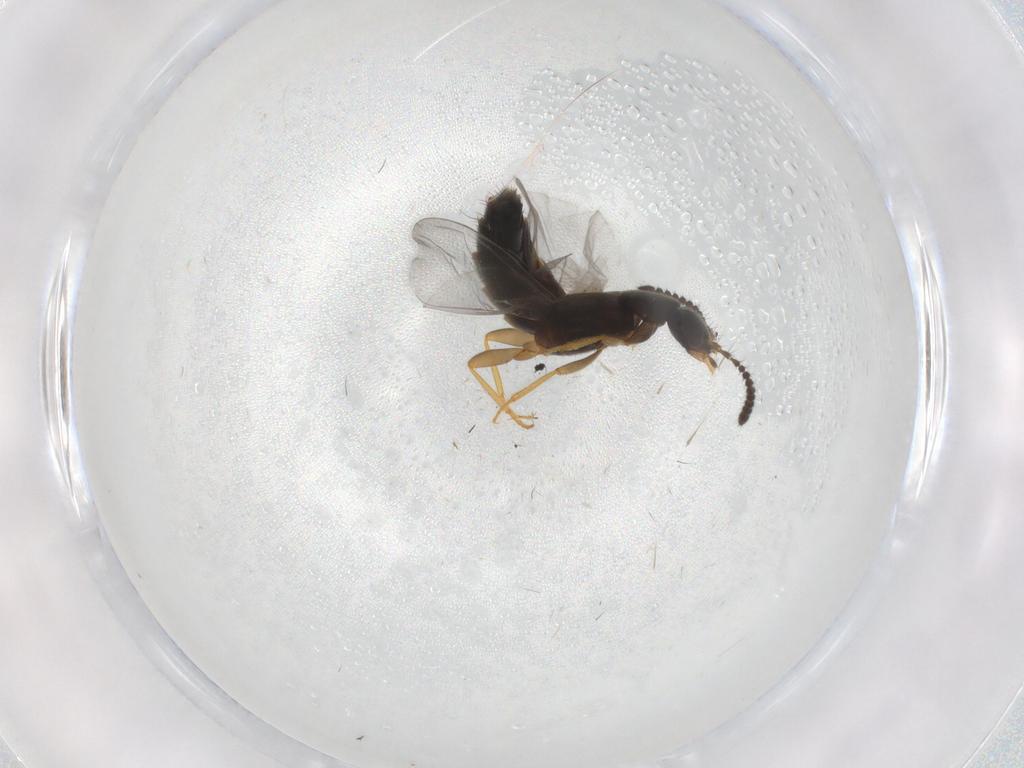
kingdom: Animalia
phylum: Arthropoda
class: Insecta
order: Coleoptera
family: Staphylinidae
